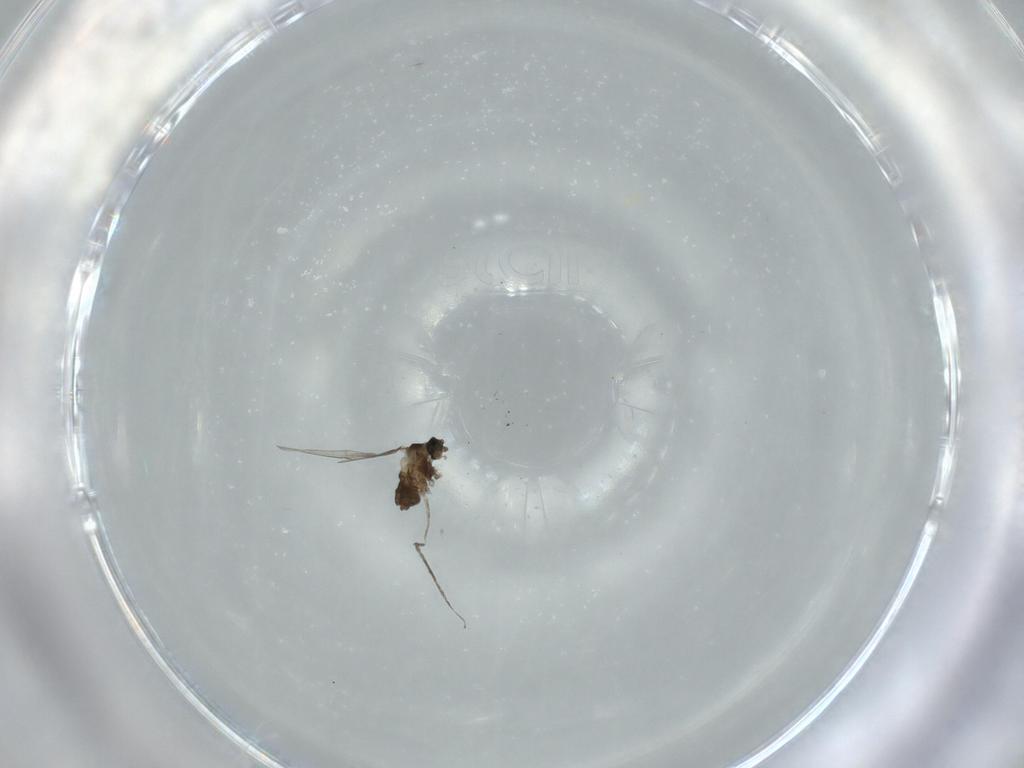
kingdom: Animalia
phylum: Arthropoda
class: Insecta
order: Diptera
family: Cecidomyiidae
